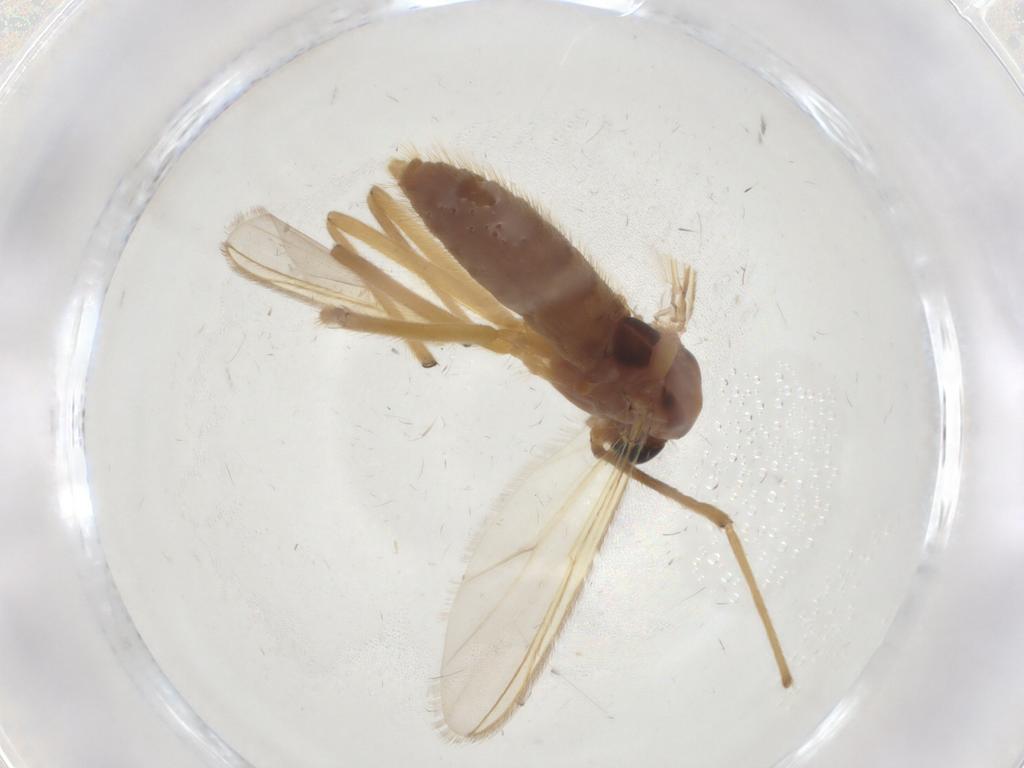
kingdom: Animalia
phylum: Arthropoda
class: Insecta
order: Diptera
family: Chironomidae
